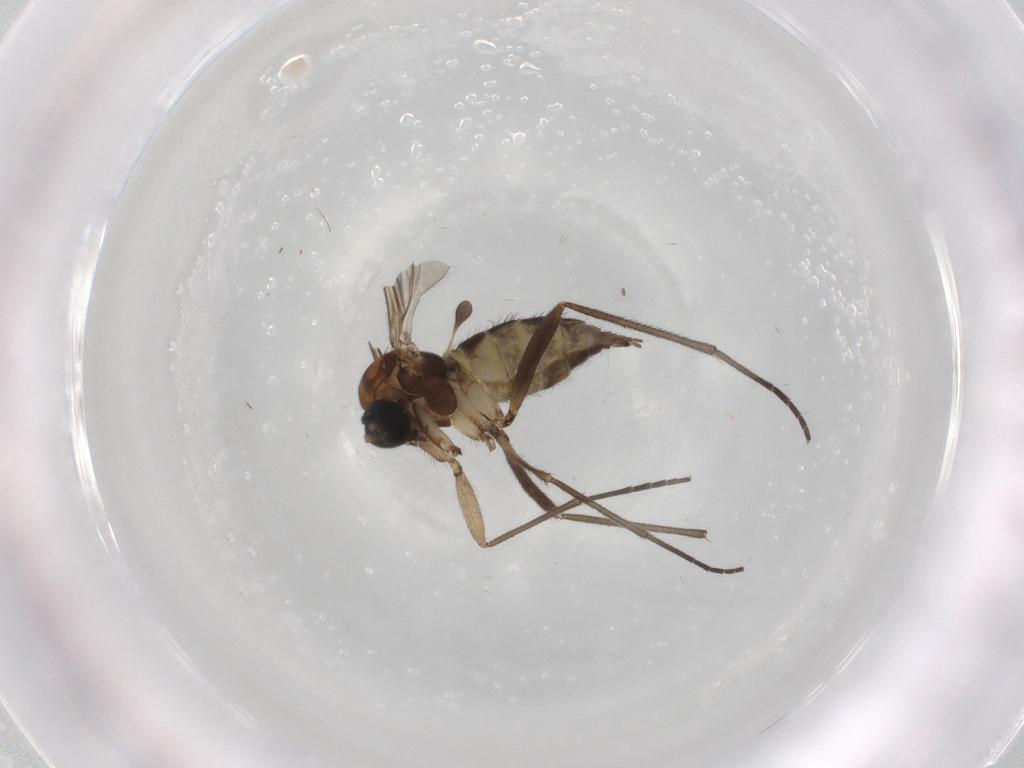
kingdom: Animalia
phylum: Arthropoda
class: Insecta
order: Diptera
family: Sciaridae
